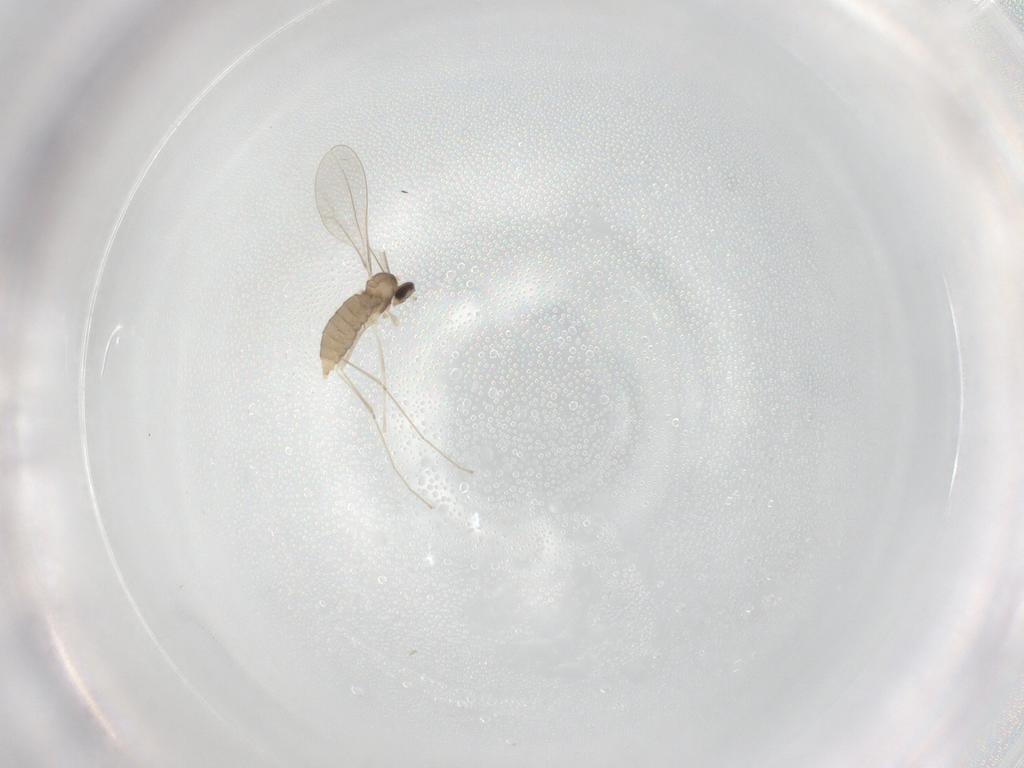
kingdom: Animalia
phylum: Arthropoda
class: Insecta
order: Diptera
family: Cecidomyiidae
